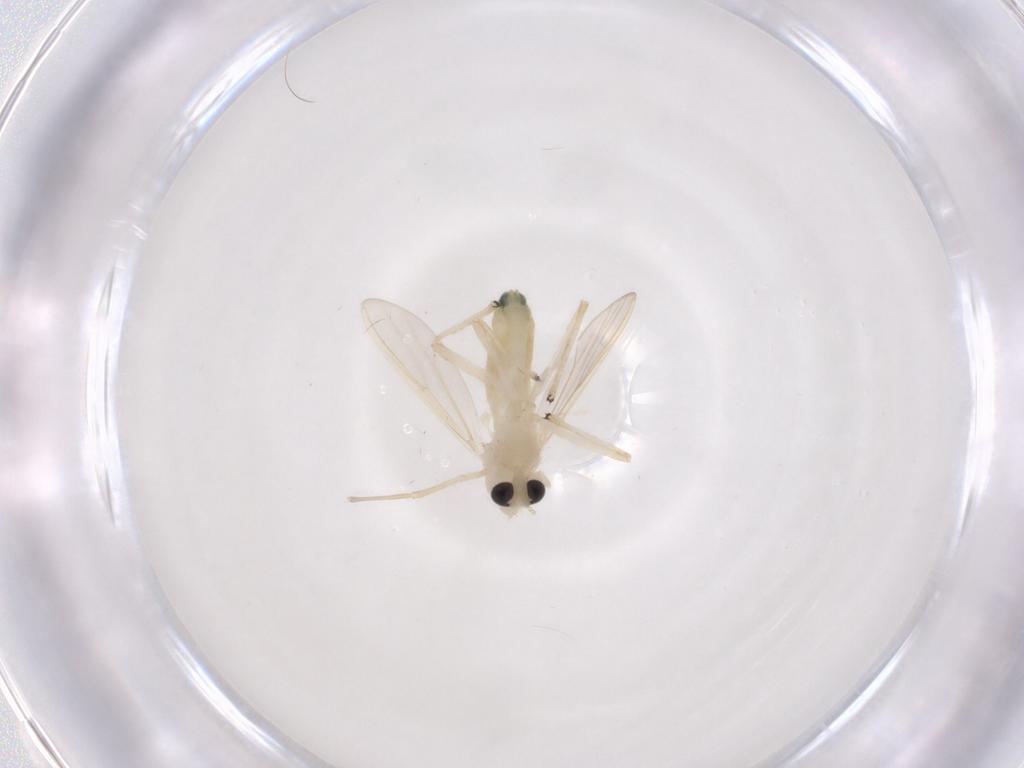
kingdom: Animalia
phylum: Arthropoda
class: Insecta
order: Diptera
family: Chironomidae
